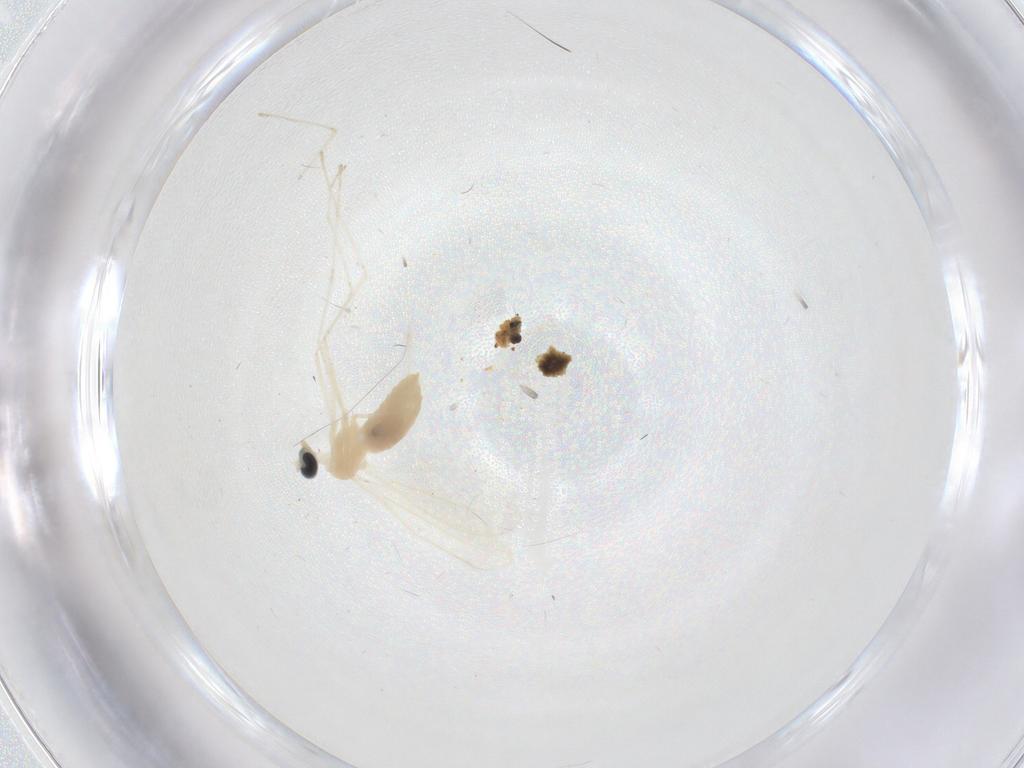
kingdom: Animalia
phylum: Arthropoda
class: Insecta
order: Diptera
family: Cecidomyiidae
